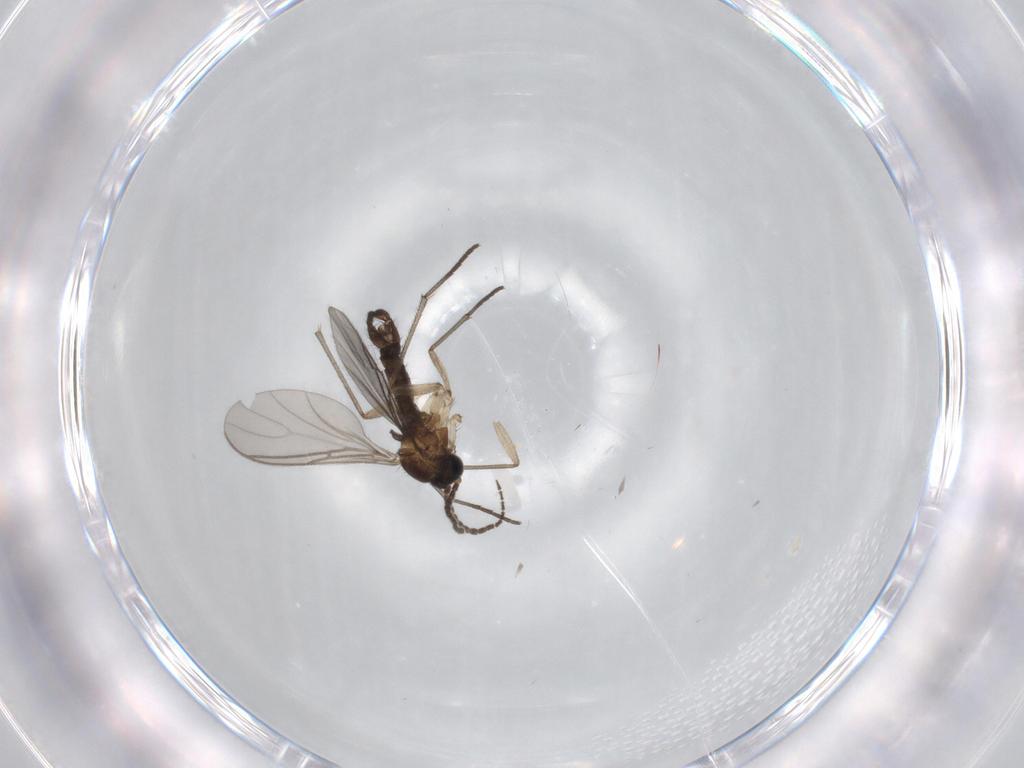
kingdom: Animalia
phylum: Arthropoda
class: Insecta
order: Diptera
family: Sciaridae
